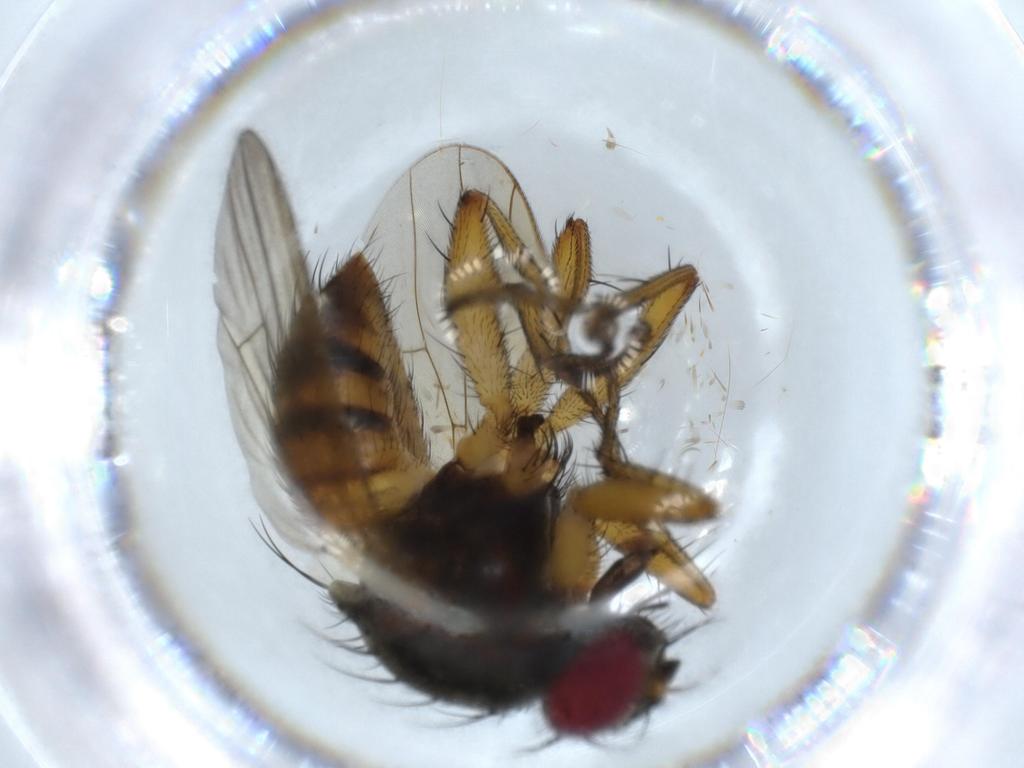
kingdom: Animalia
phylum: Arthropoda
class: Insecta
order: Diptera
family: Muscidae
